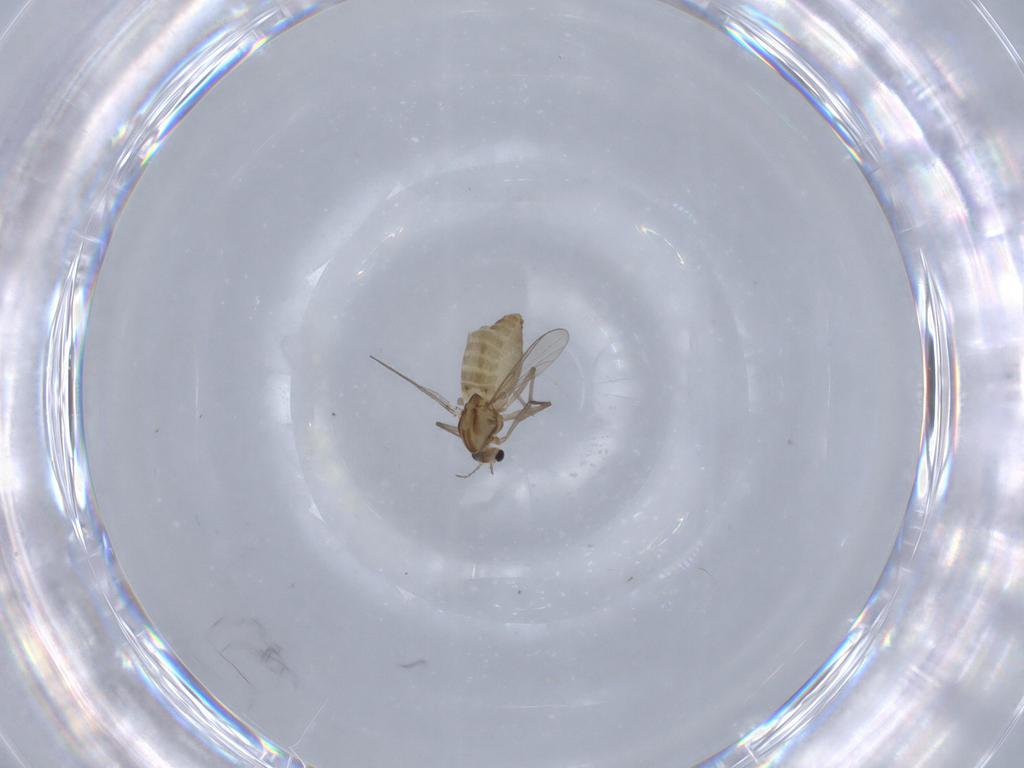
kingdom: Animalia
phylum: Arthropoda
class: Insecta
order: Diptera
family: Chironomidae
